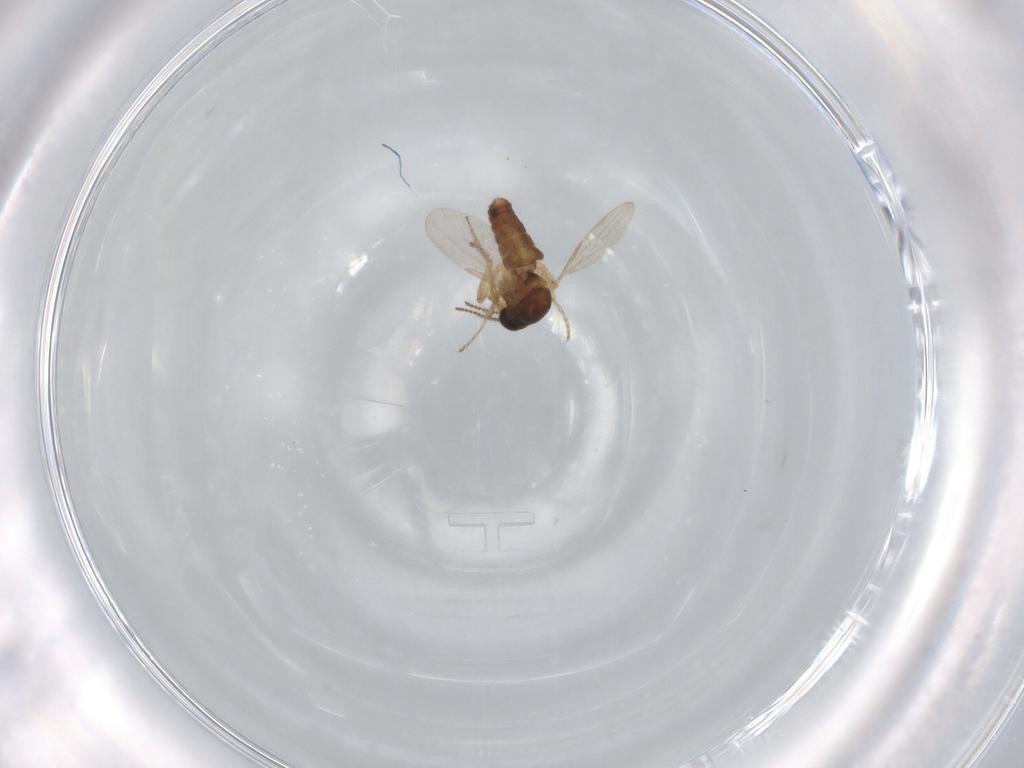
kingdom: Animalia
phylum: Arthropoda
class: Insecta
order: Diptera
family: Ceratopogonidae
